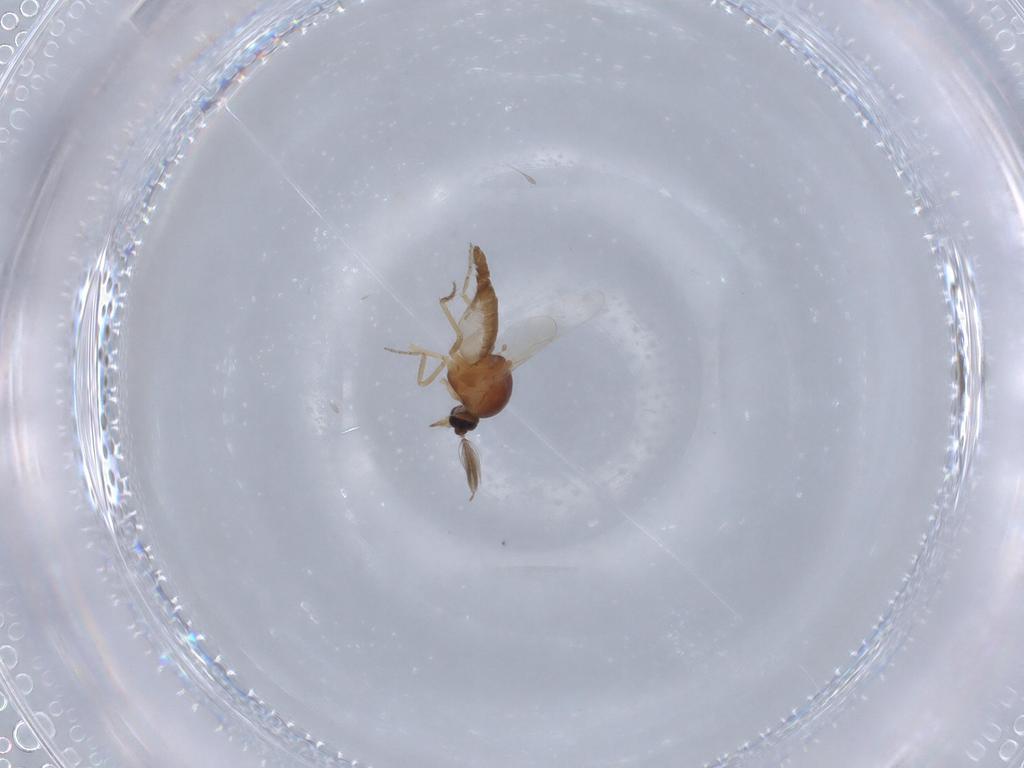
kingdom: Animalia
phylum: Arthropoda
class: Insecta
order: Diptera
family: Ceratopogonidae
